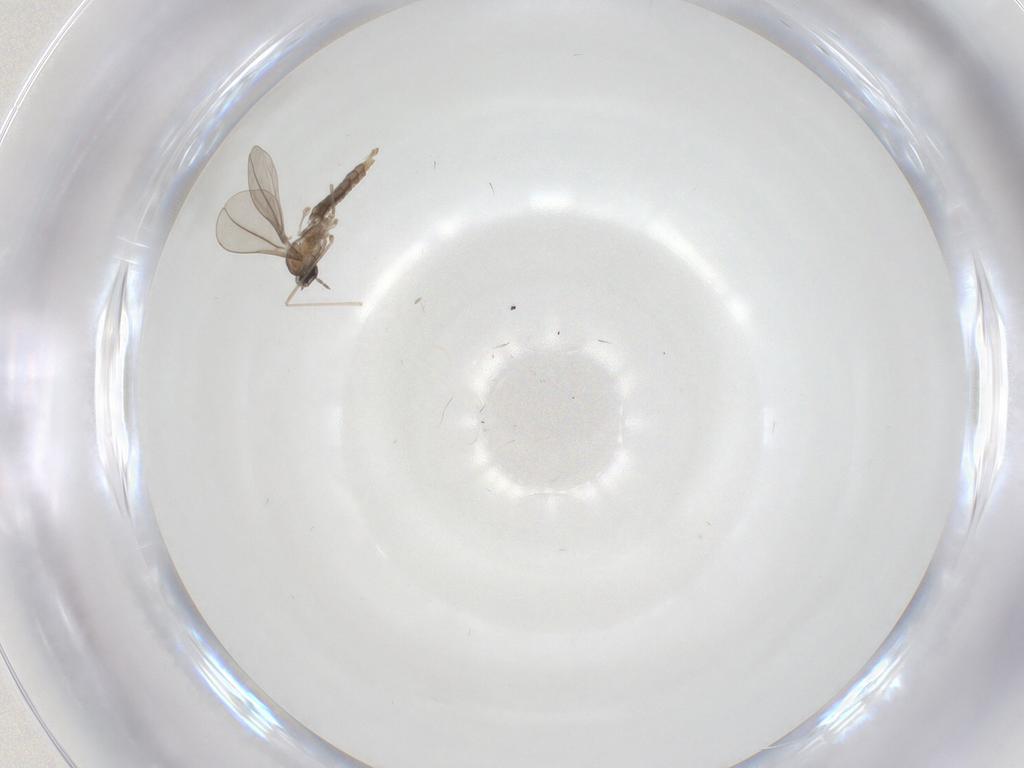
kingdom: Animalia
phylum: Arthropoda
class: Insecta
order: Diptera
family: Cecidomyiidae
